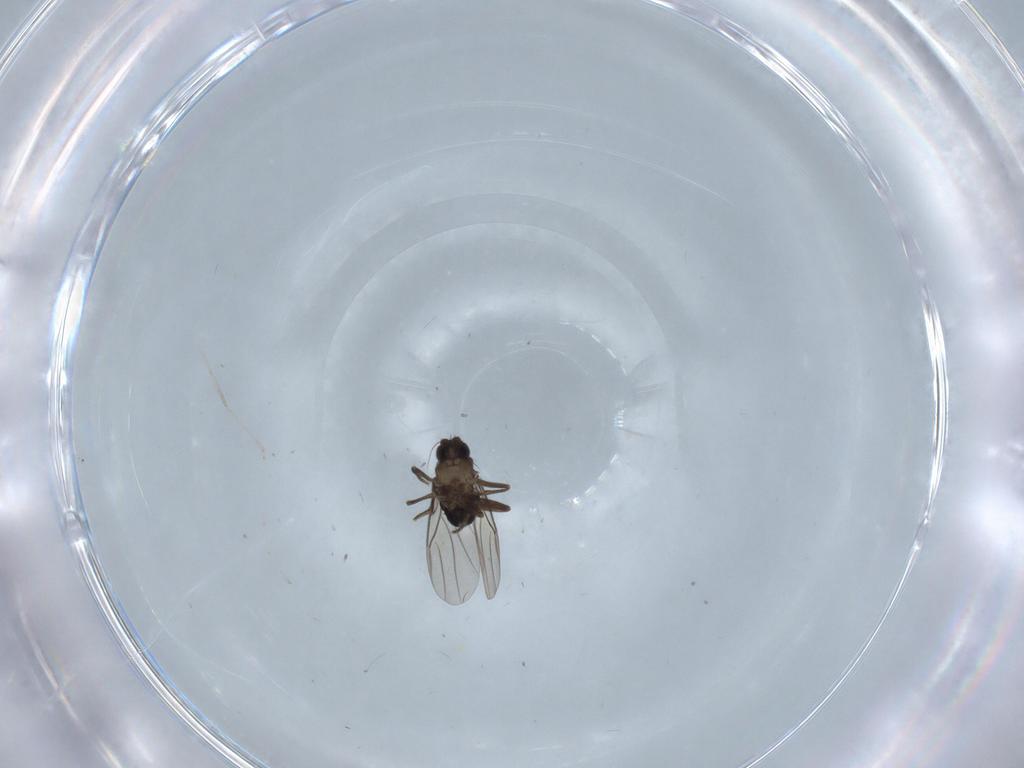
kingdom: Animalia
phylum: Arthropoda
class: Insecta
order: Diptera
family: Phoridae
